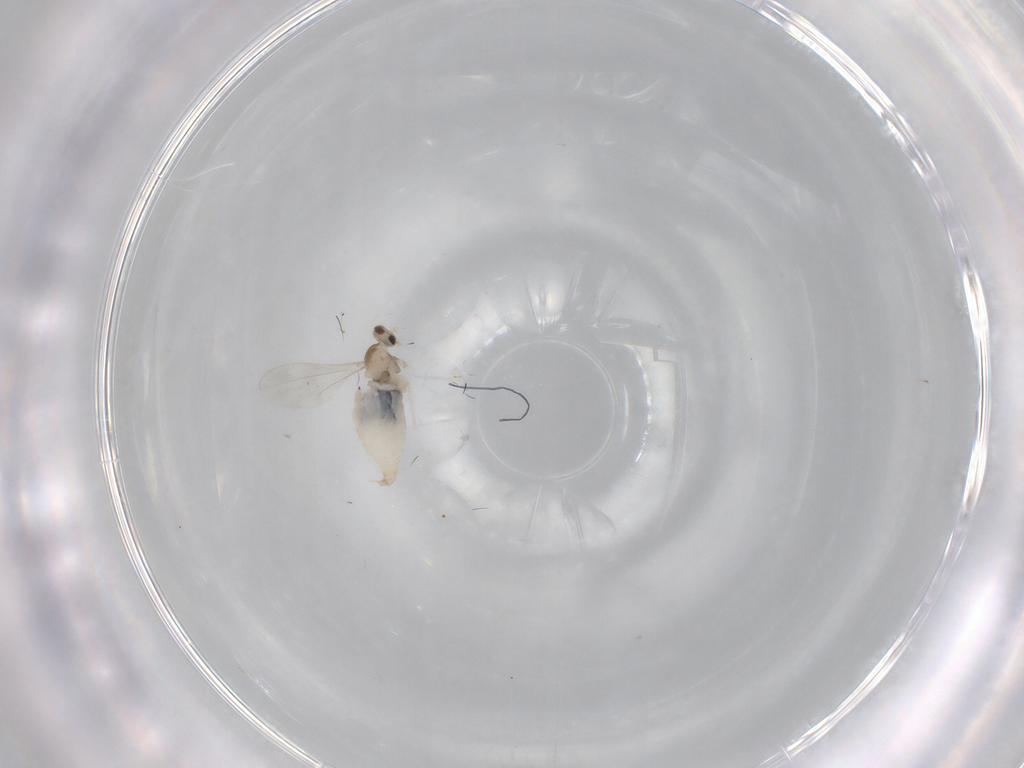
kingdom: Animalia
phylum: Arthropoda
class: Insecta
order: Diptera
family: Cecidomyiidae
